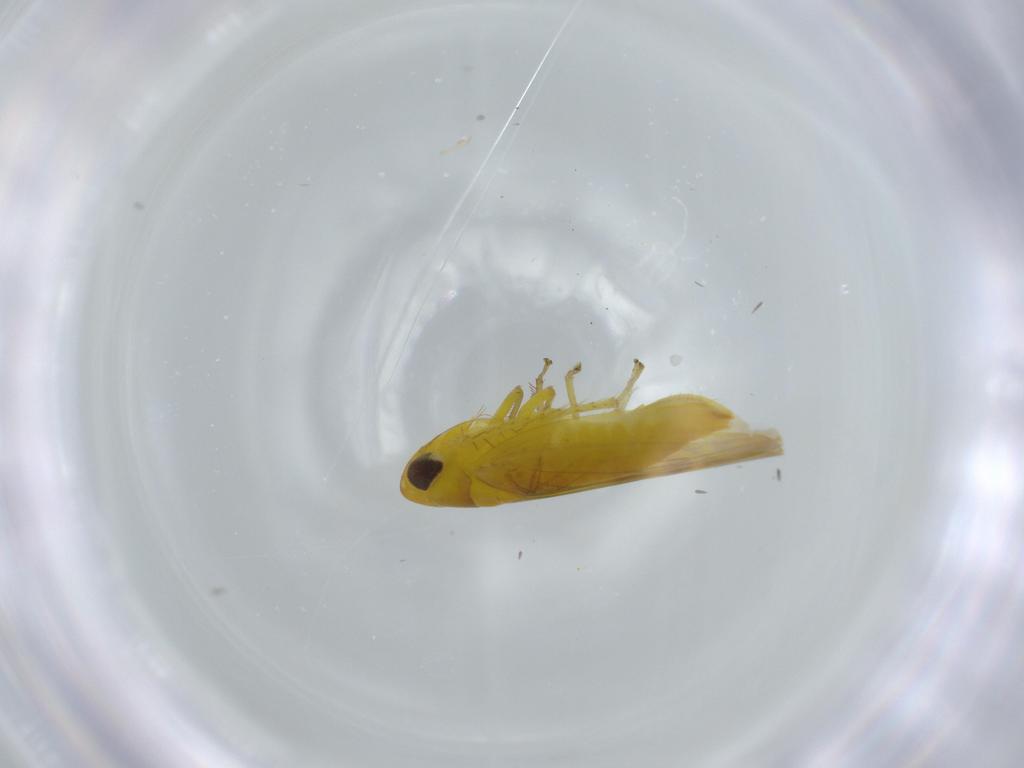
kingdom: Animalia
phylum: Arthropoda
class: Insecta
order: Hemiptera
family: Cicadellidae
